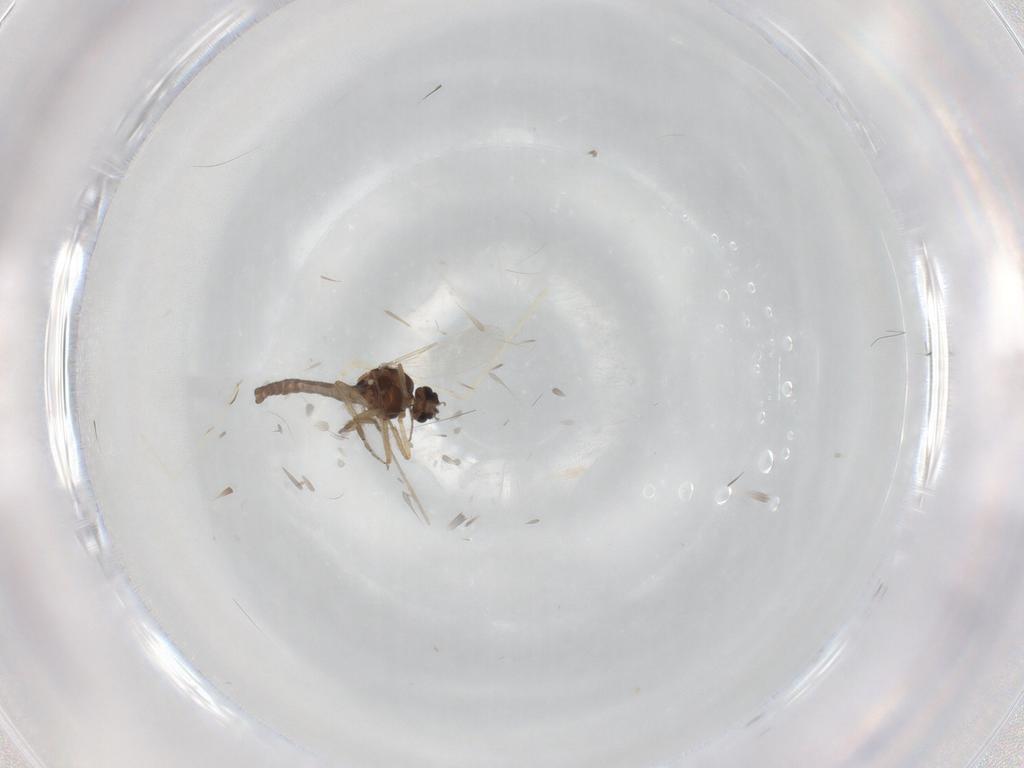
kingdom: Animalia
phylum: Arthropoda
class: Insecta
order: Diptera
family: Ceratopogonidae
